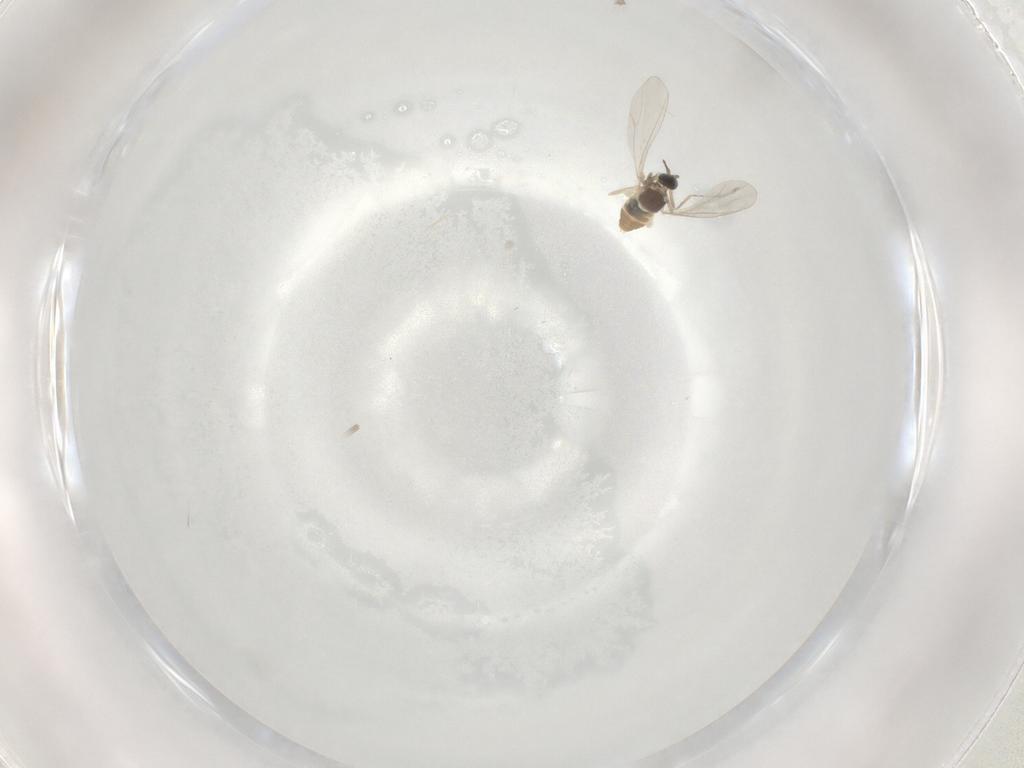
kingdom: Animalia
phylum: Arthropoda
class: Insecta
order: Diptera
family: Cecidomyiidae
